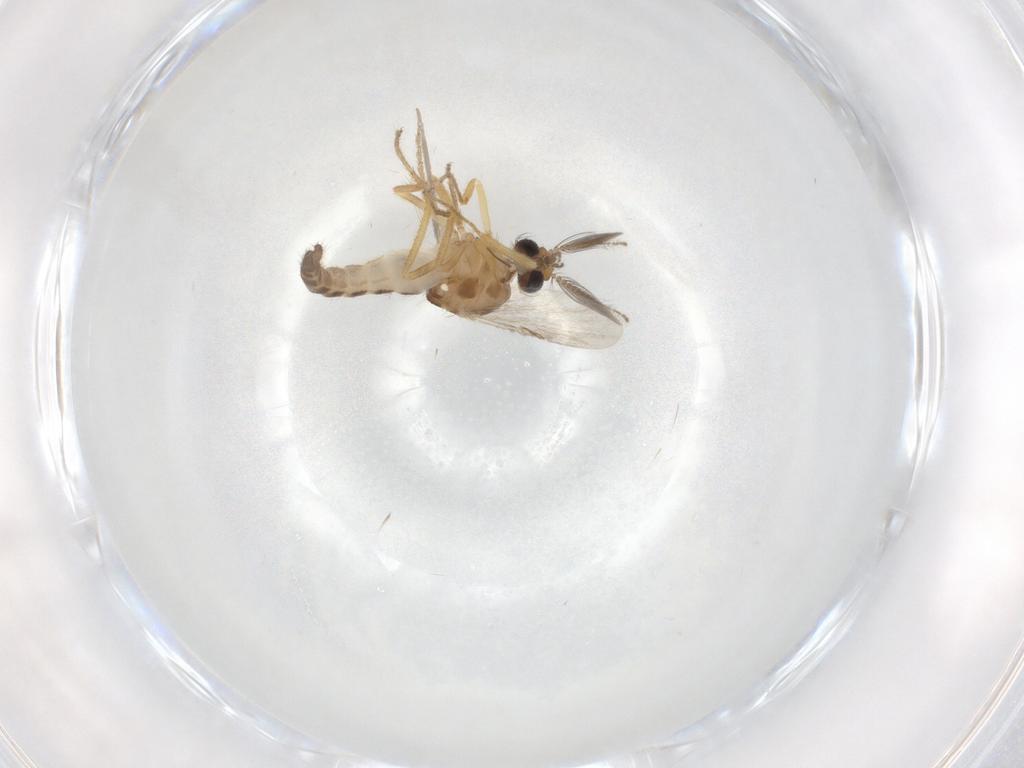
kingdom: Animalia
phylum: Arthropoda
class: Insecta
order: Diptera
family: Ceratopogonidae
